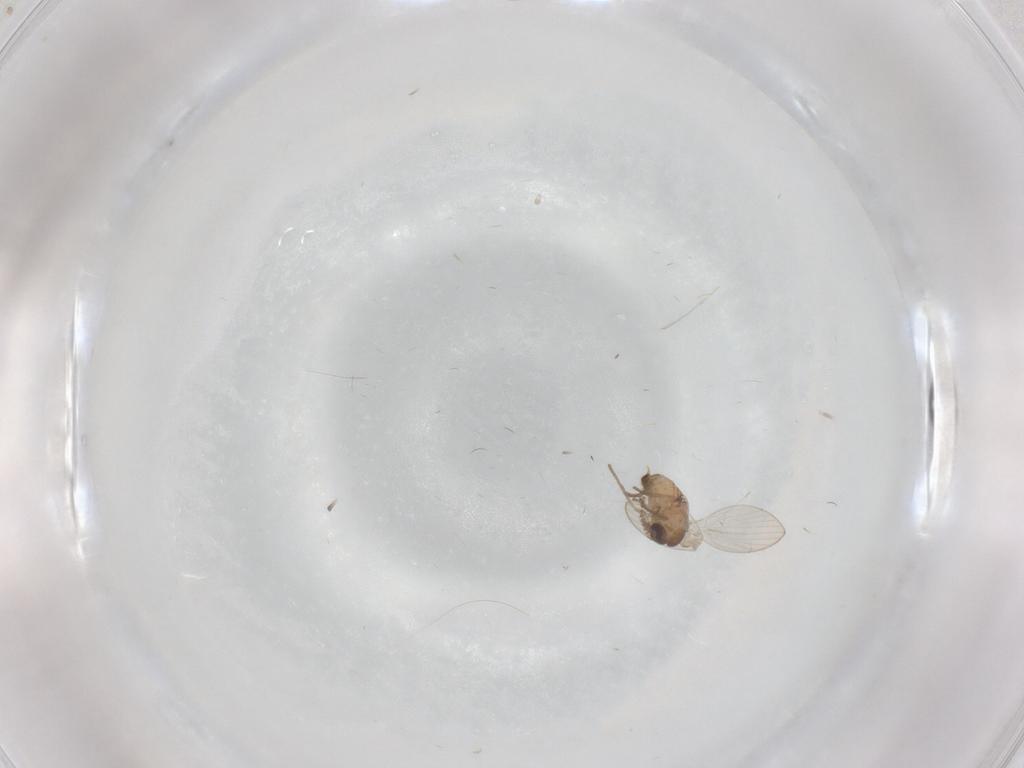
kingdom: Animalia
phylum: Arthropoda
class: Insecta
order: Diptera
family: Psychodidae
